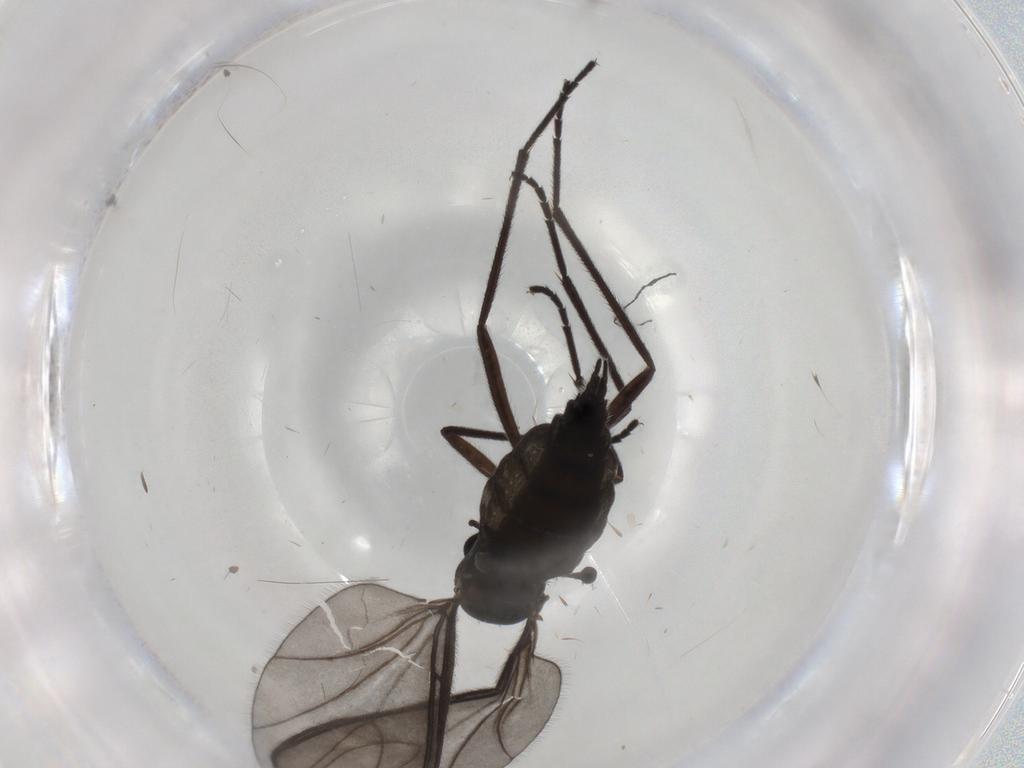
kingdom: Animalia
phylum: Arthropoda
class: Insecta
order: Diptera
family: Sciaridae
